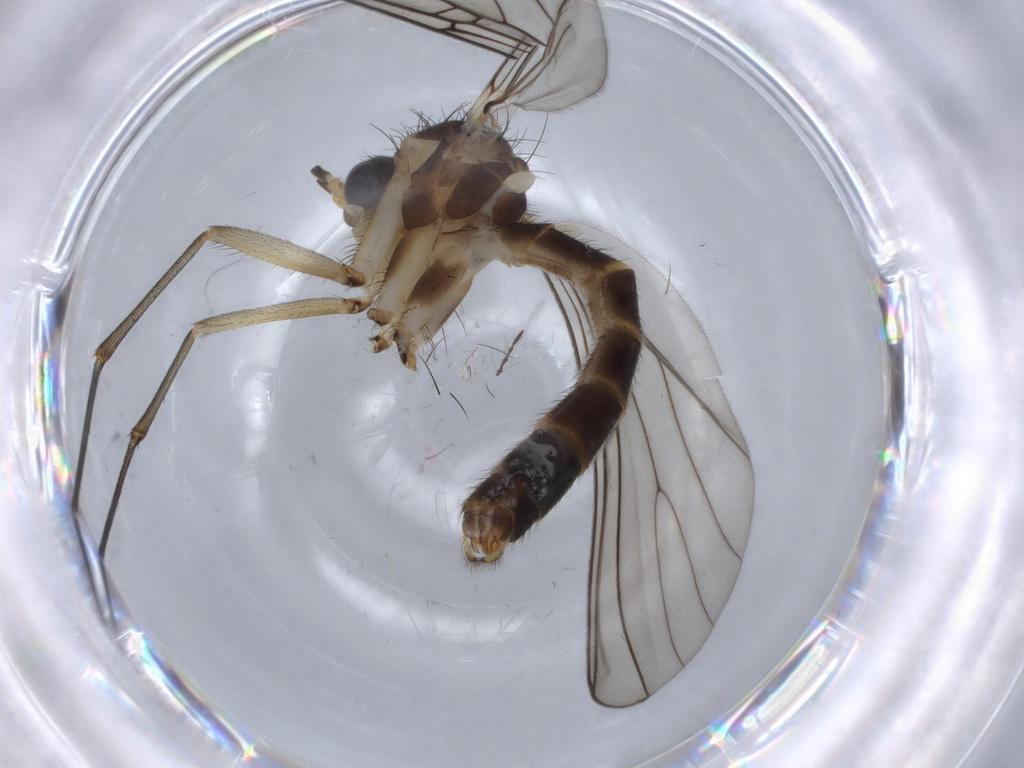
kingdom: Animalia
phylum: Arthropoda
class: Insecta
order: Diptera
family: Cecidomyiidae
